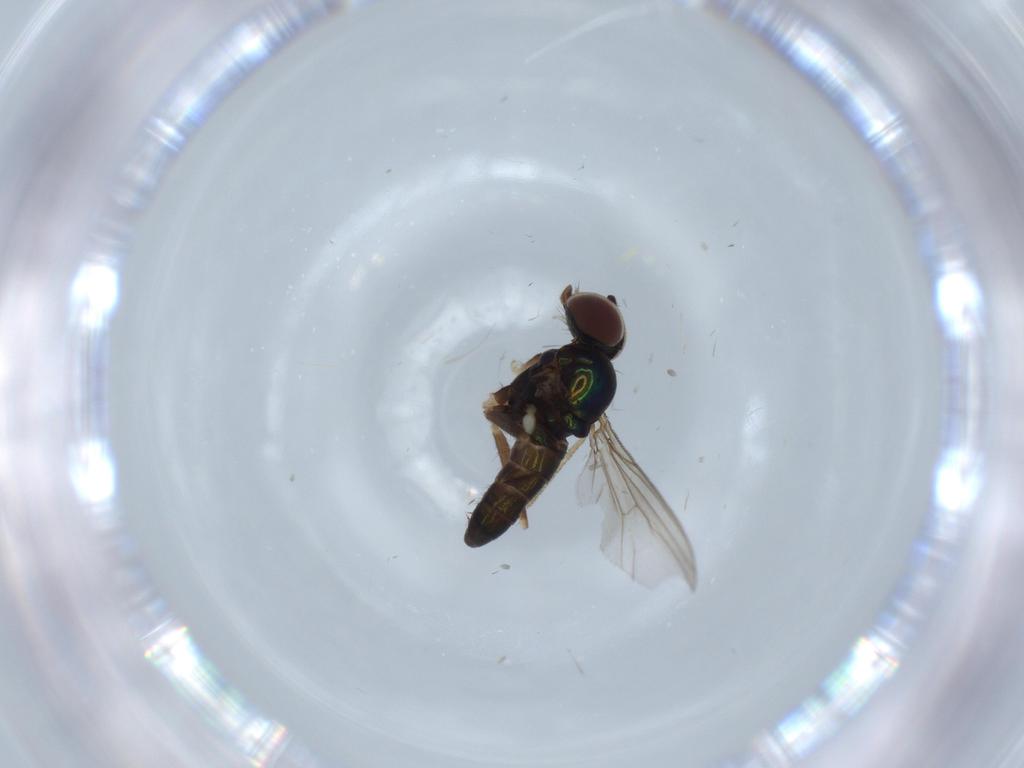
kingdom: Animalia
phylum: Arthropoda
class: Insecta
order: Diptera
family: Dolichopodidae
